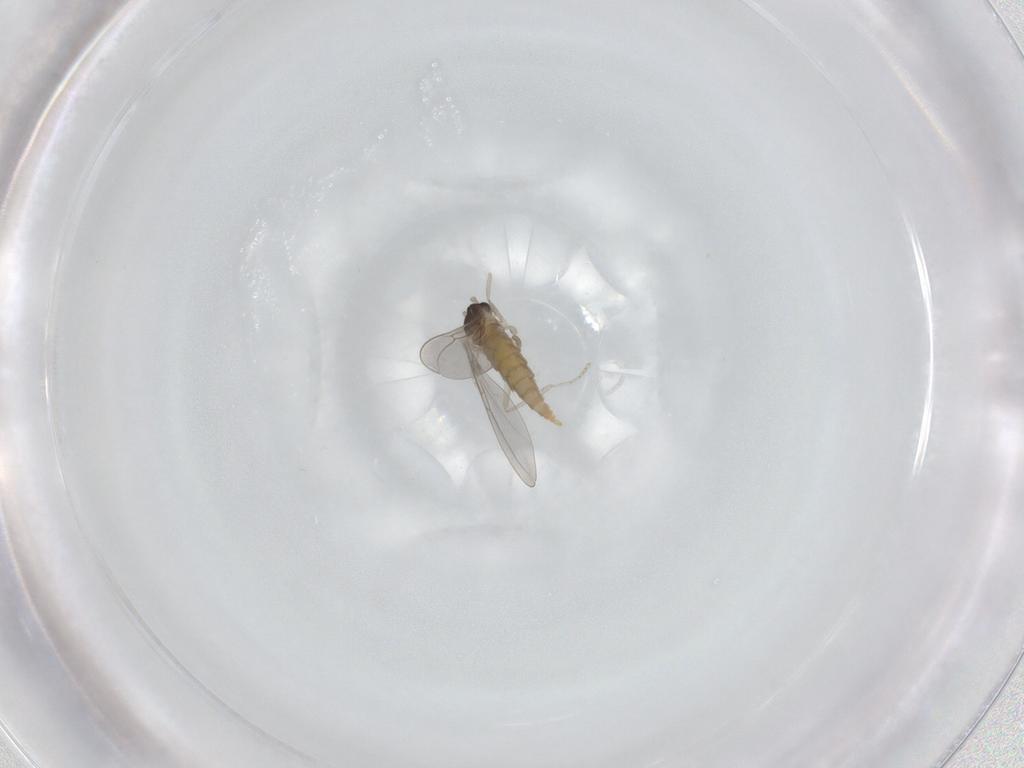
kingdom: Animalia
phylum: Arthropoda
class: Insecta
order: Diptera
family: Cecidomyiidae
